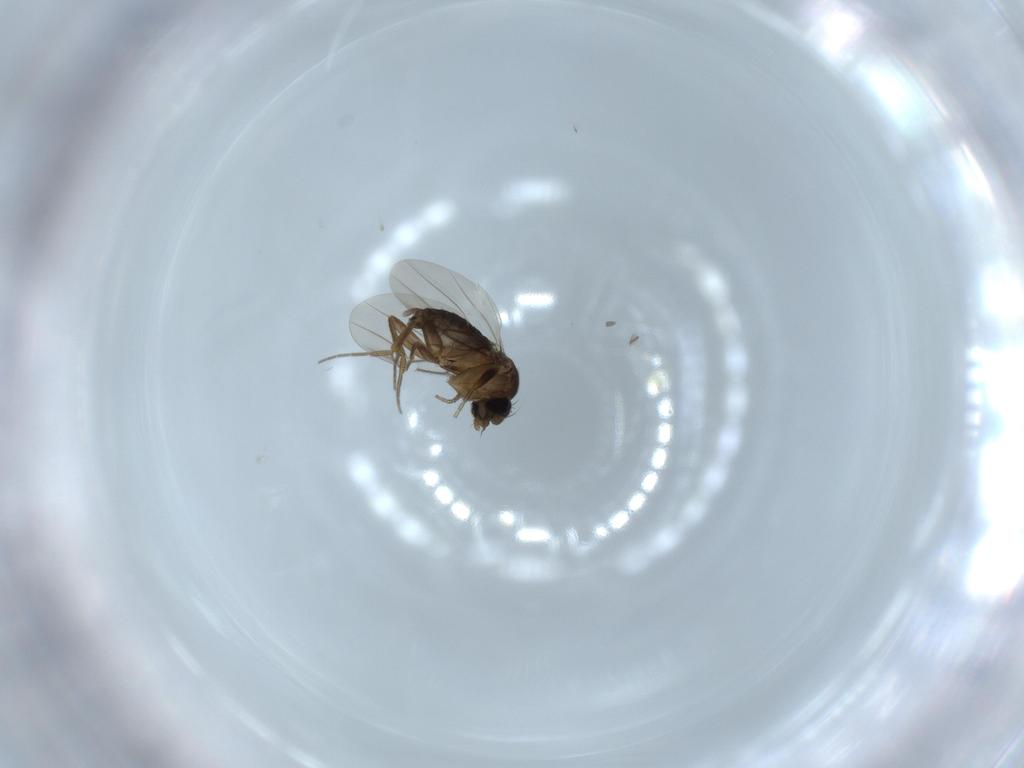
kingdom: Animalia
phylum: Arthropoda
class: Insecta
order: Diptera
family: Phoridae
